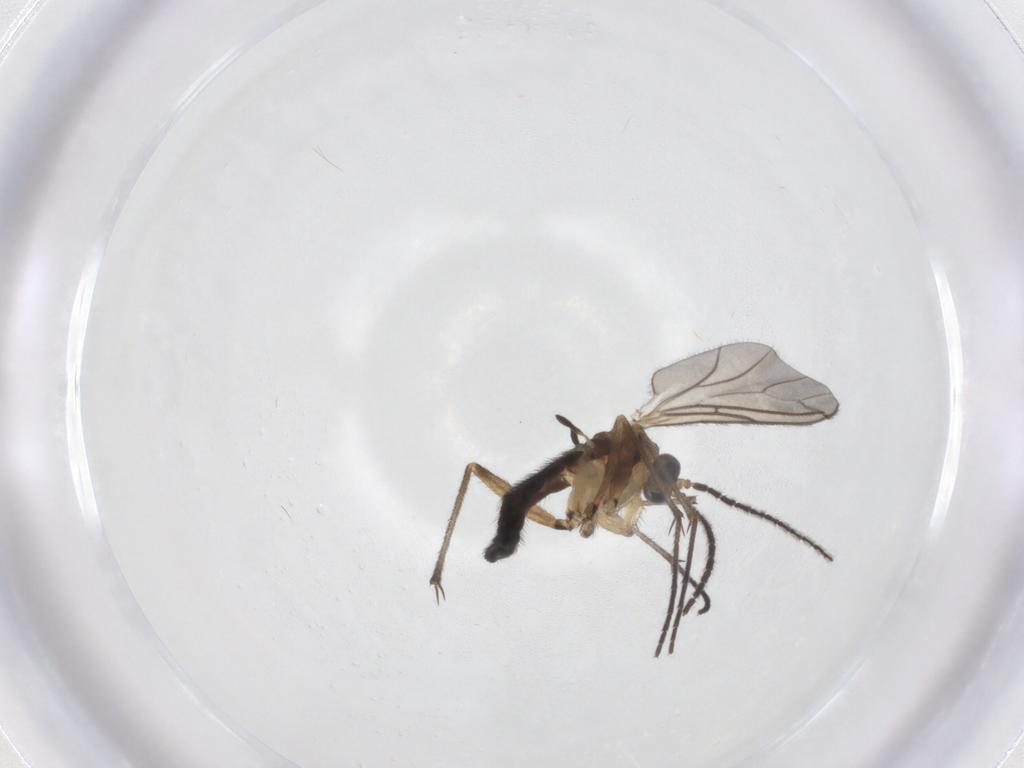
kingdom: Animalia
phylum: Arthropoda
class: Insecta
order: Diptera
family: Sciaridae
